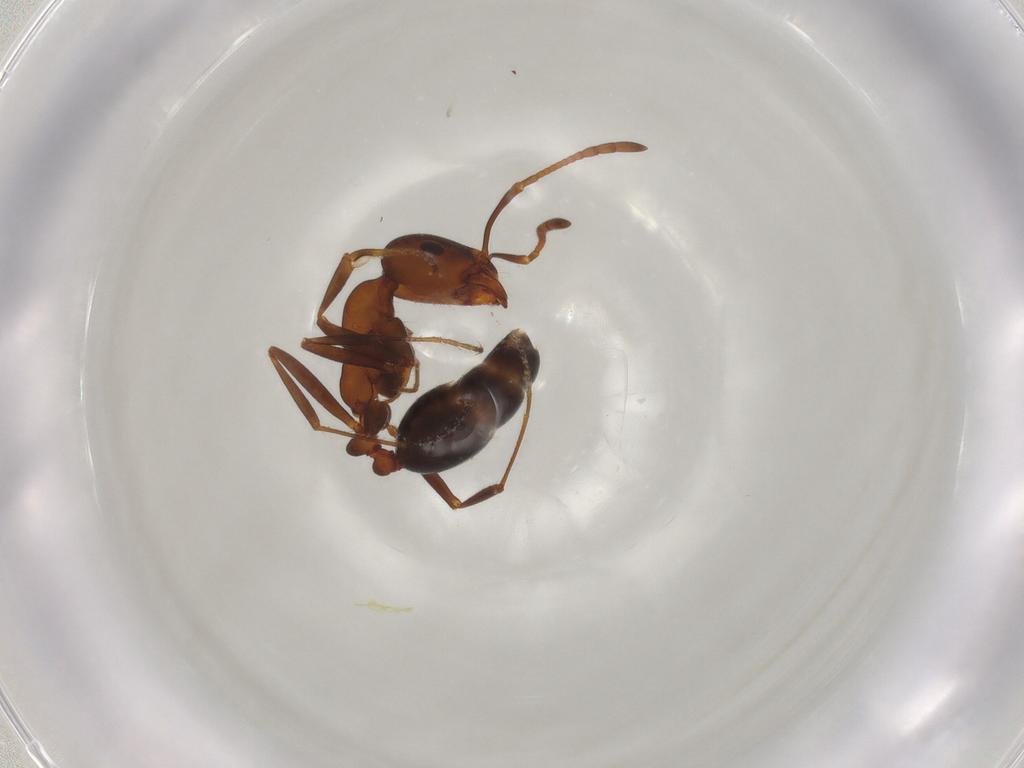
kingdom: Animalia
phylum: Arthropoda
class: Insecta
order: Hymenoptera
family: Formicidae
